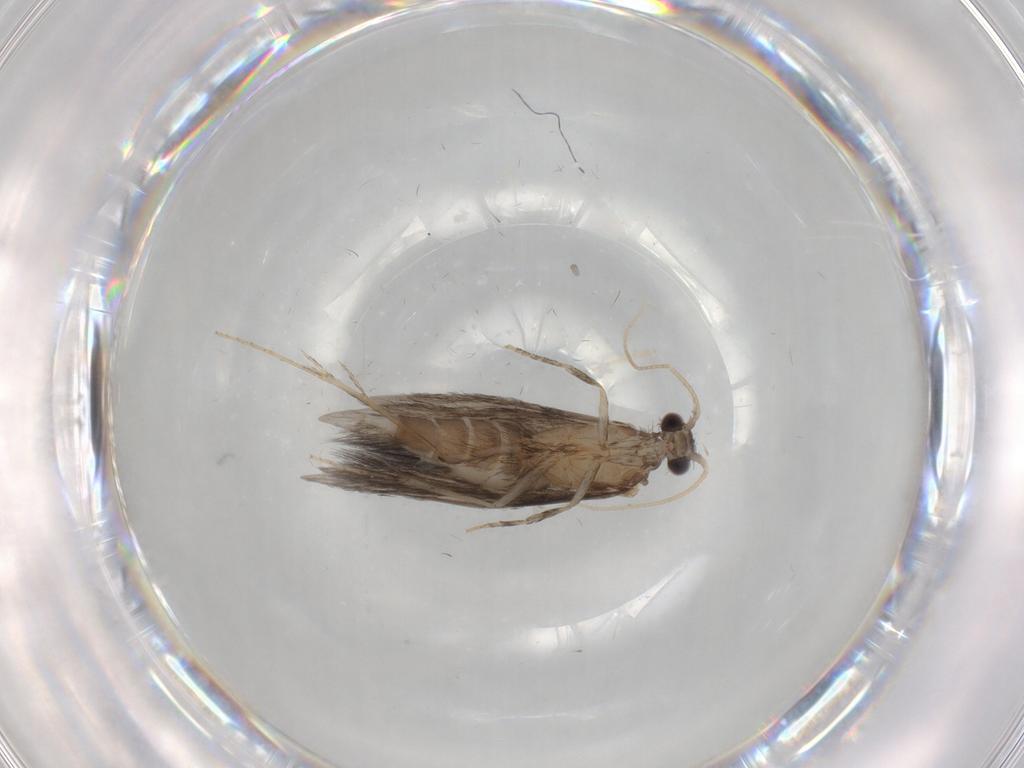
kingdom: Animalia
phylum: Arthropoda
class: Insecta
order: Trichoptera
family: Hydroptilidae
